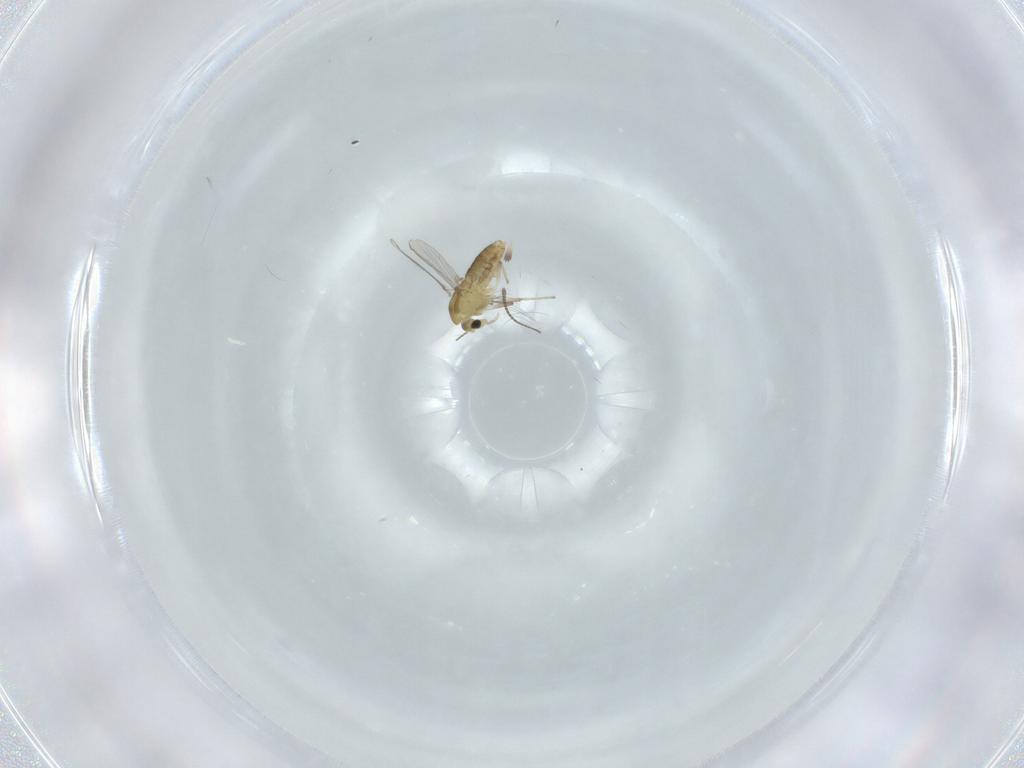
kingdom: Animalia
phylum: Arthropoda
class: Insecta
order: Diptera
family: Chironomidae
